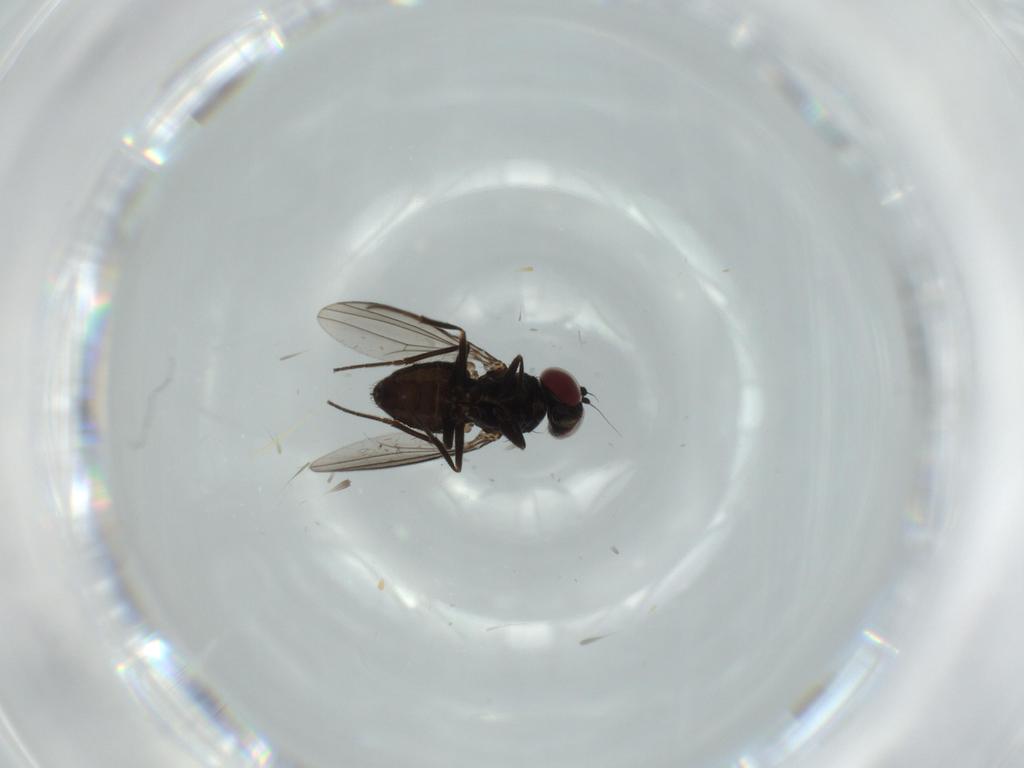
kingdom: Animalia
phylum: Arthropoda
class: Insecta
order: Diptera
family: Dolichopodidae
